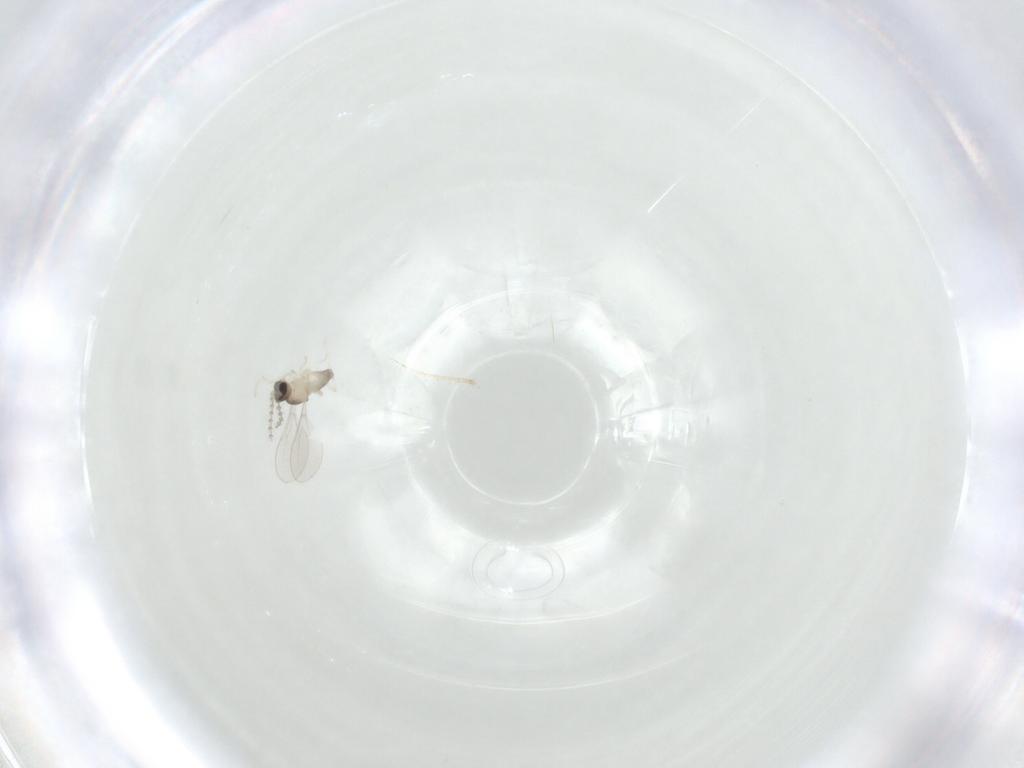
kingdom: Animalia
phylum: Arthropoda
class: Insecta
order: Diptera
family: Cecidomyiidae
